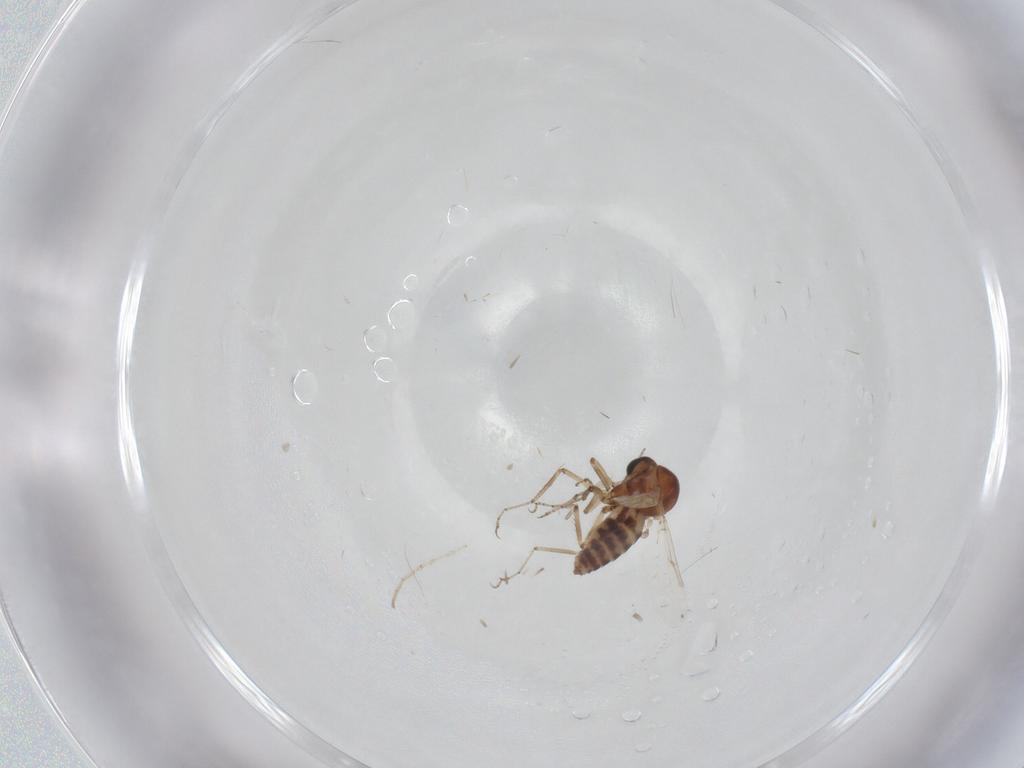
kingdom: Animalia
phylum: Arthropoda
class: Insecta
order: Diptera
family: Ceratopogonidae
